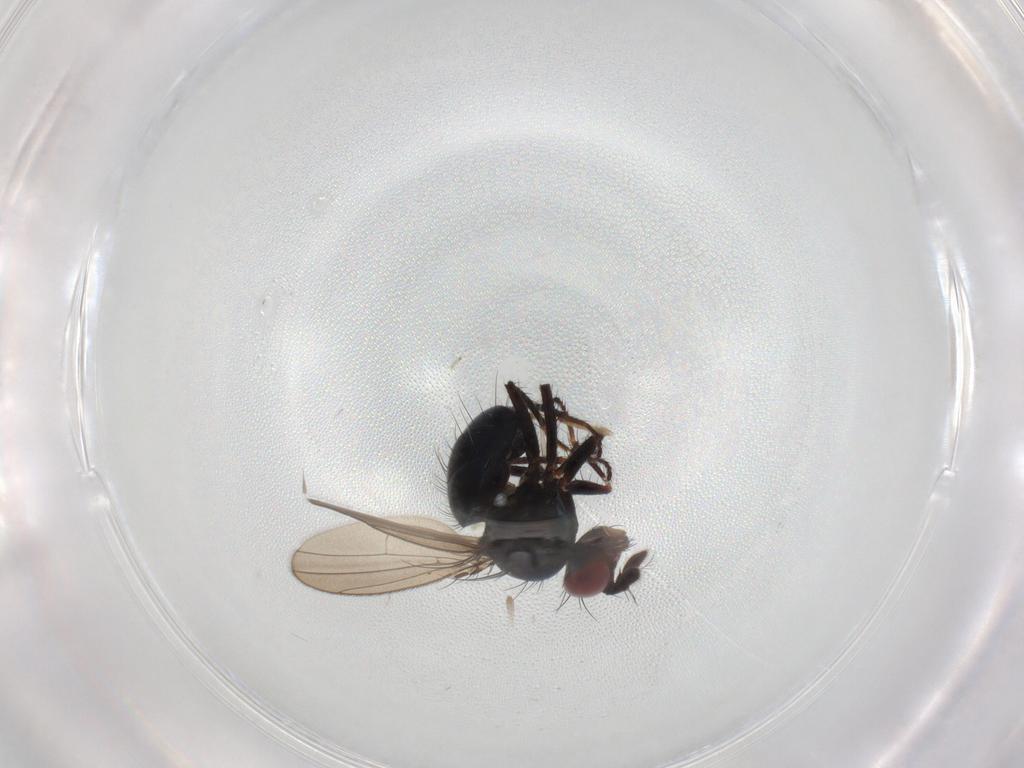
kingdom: Animalia
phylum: Arthropoda
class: Insecta
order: Diptera
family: Chironomidae
